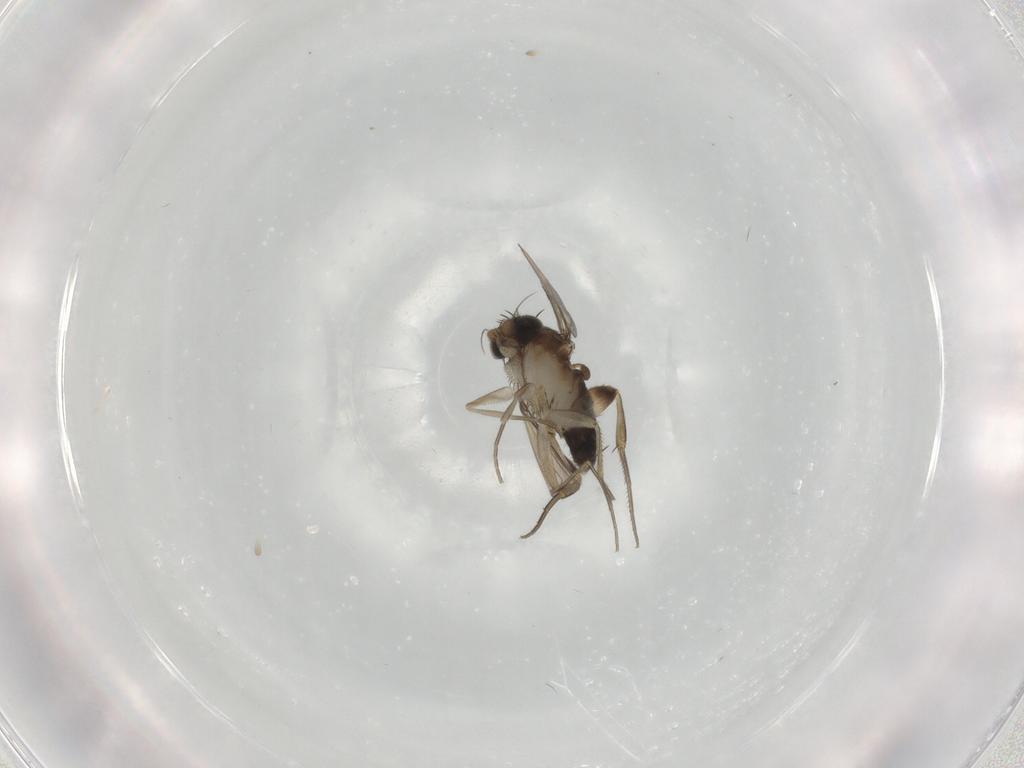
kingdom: Animalia
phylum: Arthropoda
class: Insecta
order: Diptera
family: Phoridae
